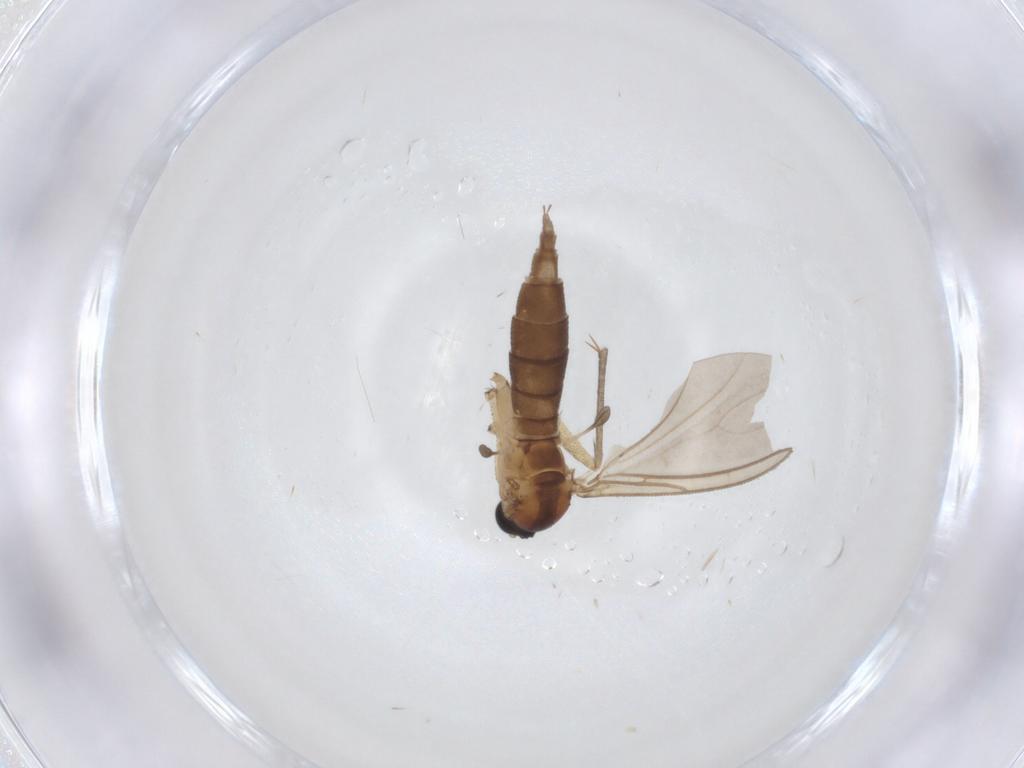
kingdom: Animalia
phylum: Arthropoda
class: Insecta
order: Diptera
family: Sciaridae
